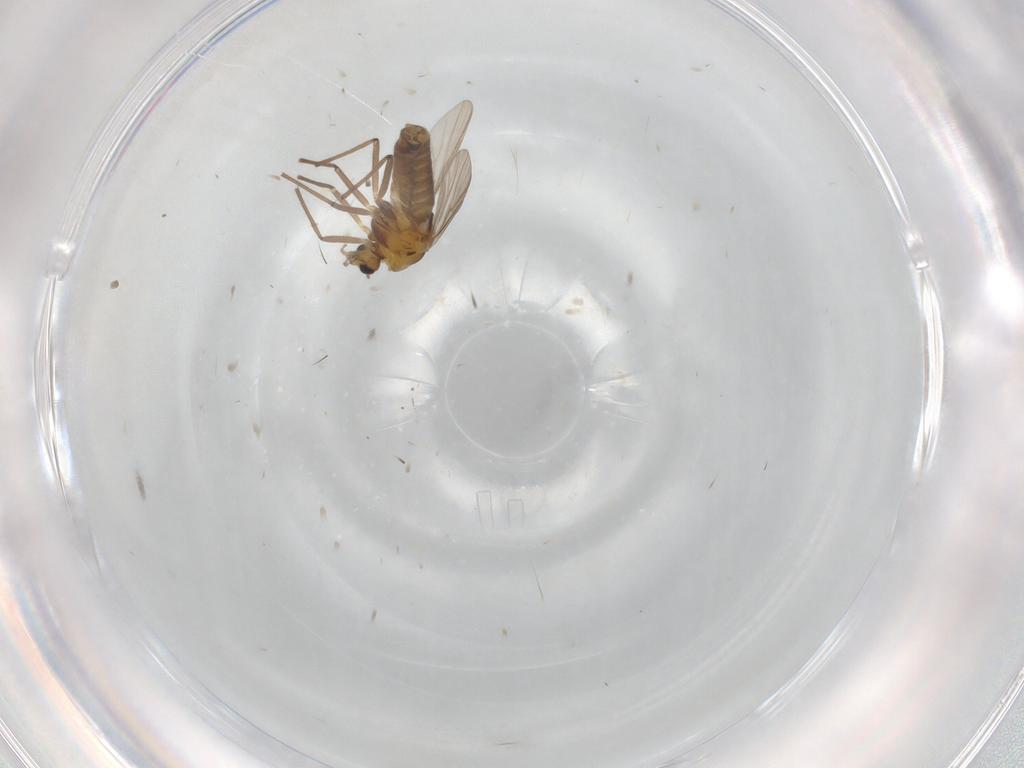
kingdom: Animalia
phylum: Arthropoda
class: Insecta
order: Diptera
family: Chironomidae
